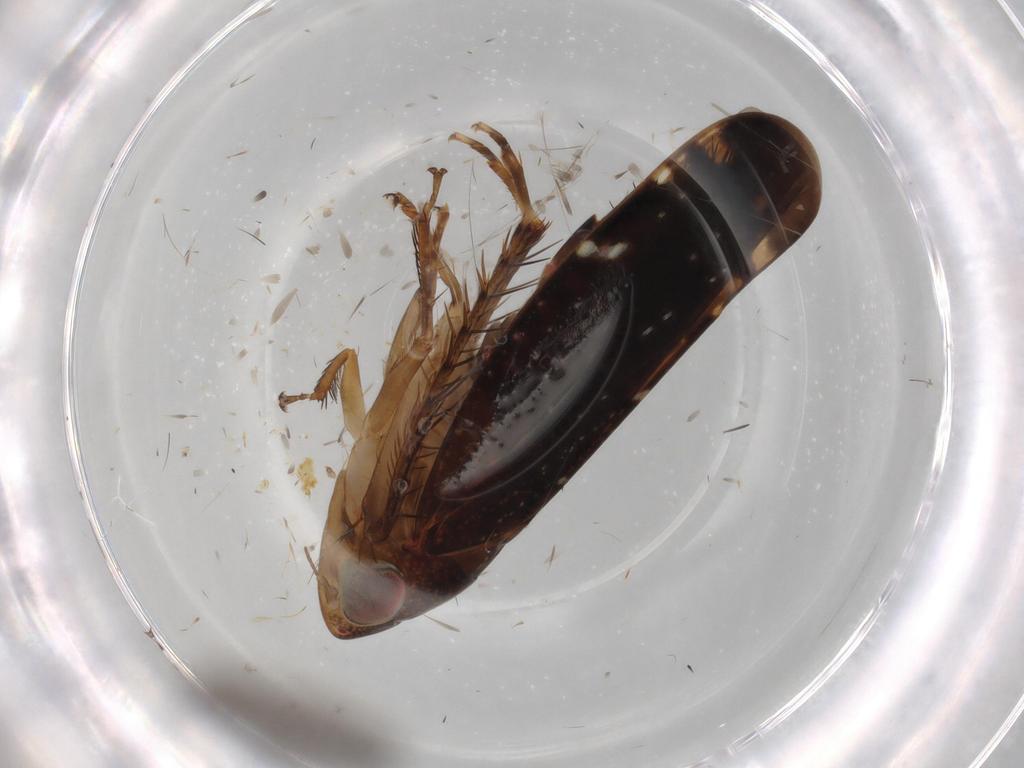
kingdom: Animalia
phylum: Arthropoda
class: Insecta
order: Hemiptera
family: Cicadellidae
